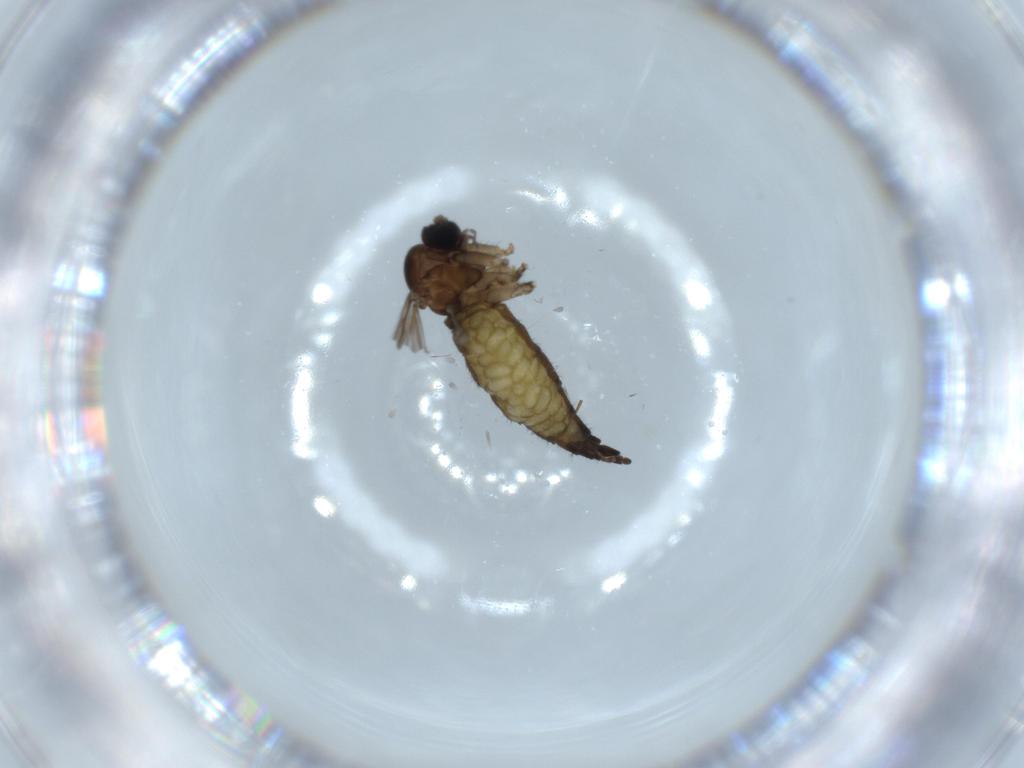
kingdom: Animalia
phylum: Arthropoda
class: Insecta
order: Diptera
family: Sciaridae
